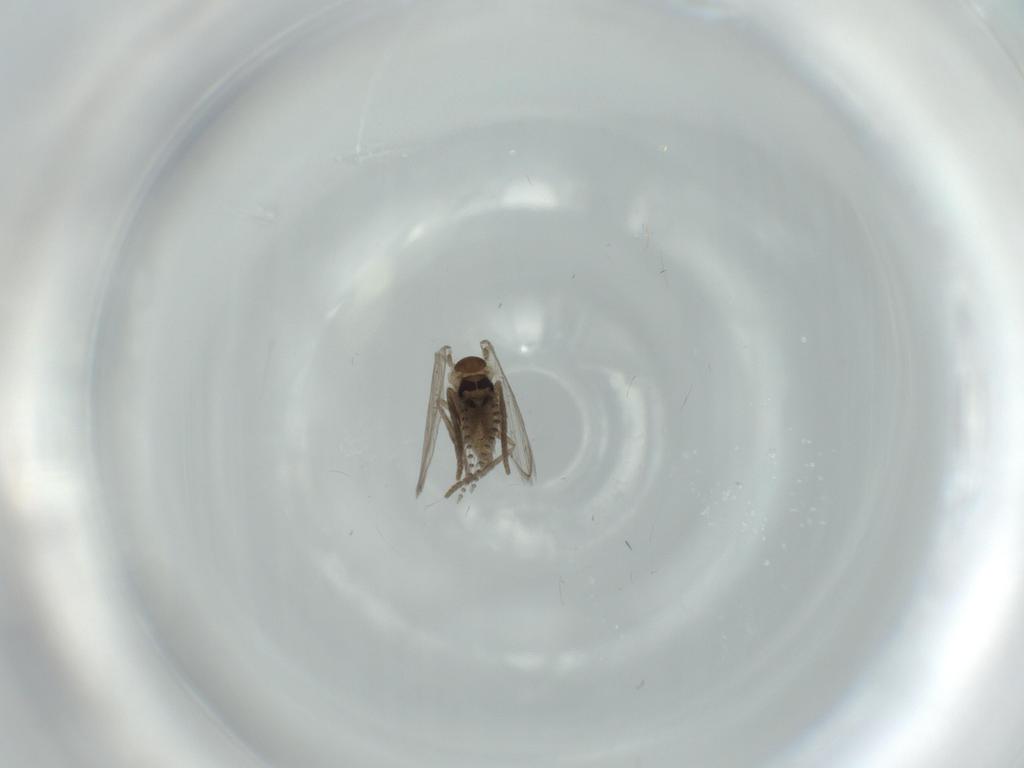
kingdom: Animalia
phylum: Arthropoda
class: Insecta
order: Diptera
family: Psychodidae
